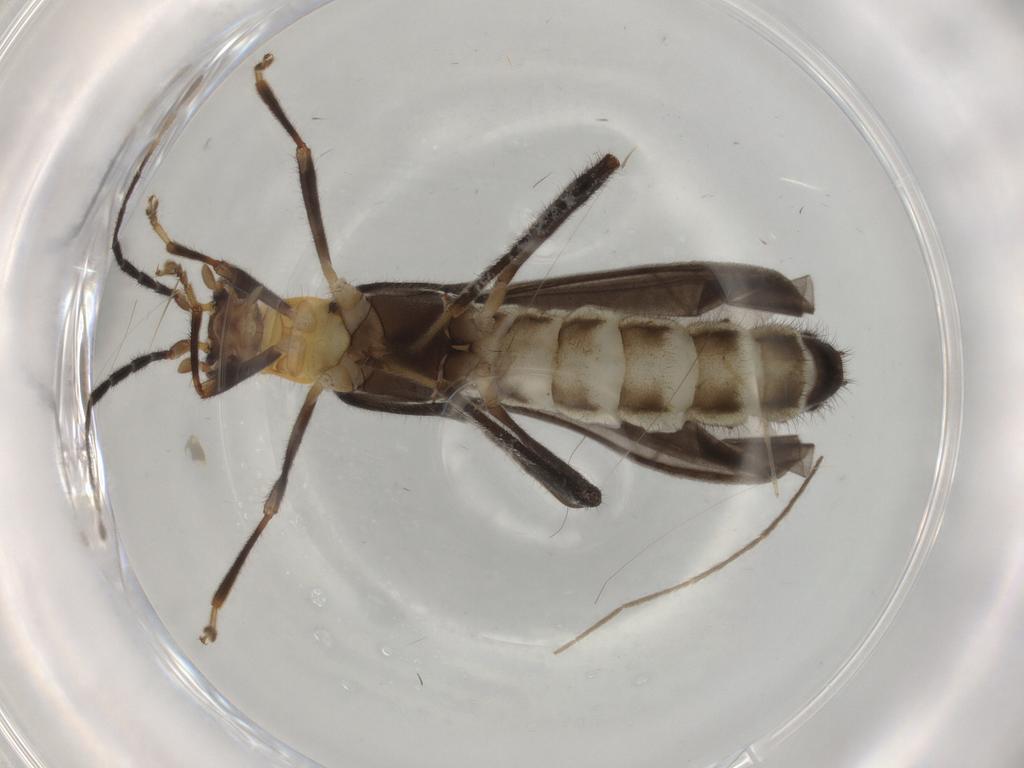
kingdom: Animalia
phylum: Arthropoda
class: Insecta
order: Coleoptera
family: Cantharidae
